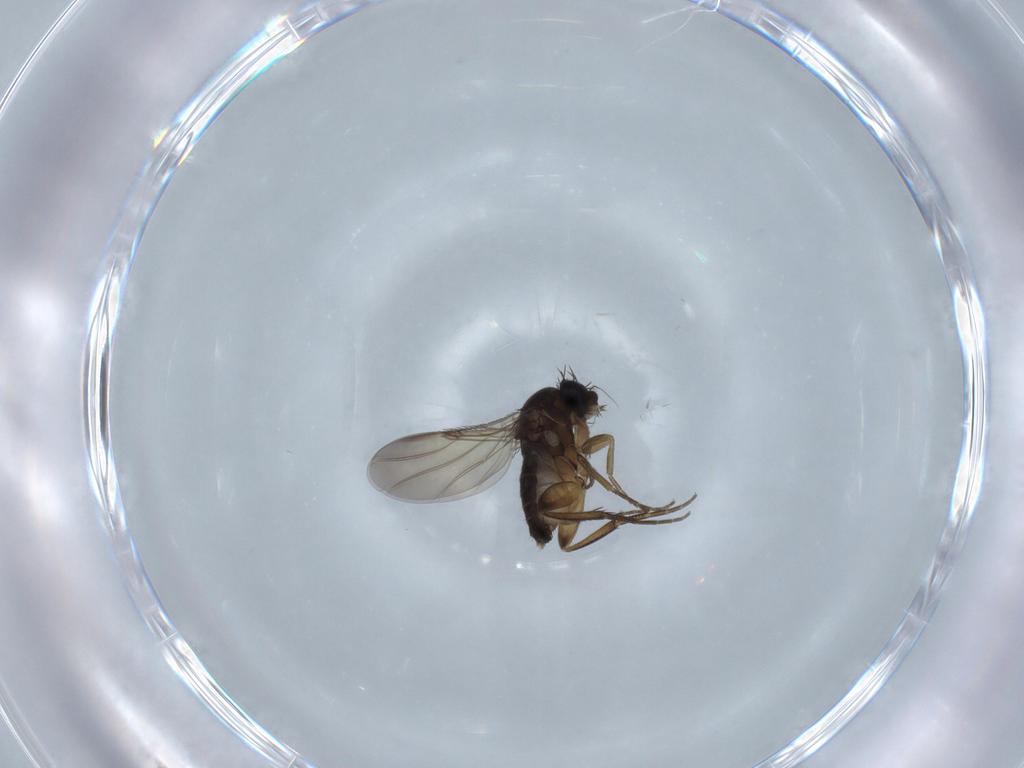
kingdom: Animalia
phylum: Arthropoda
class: Insecta
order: Diptera
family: Phoridae
